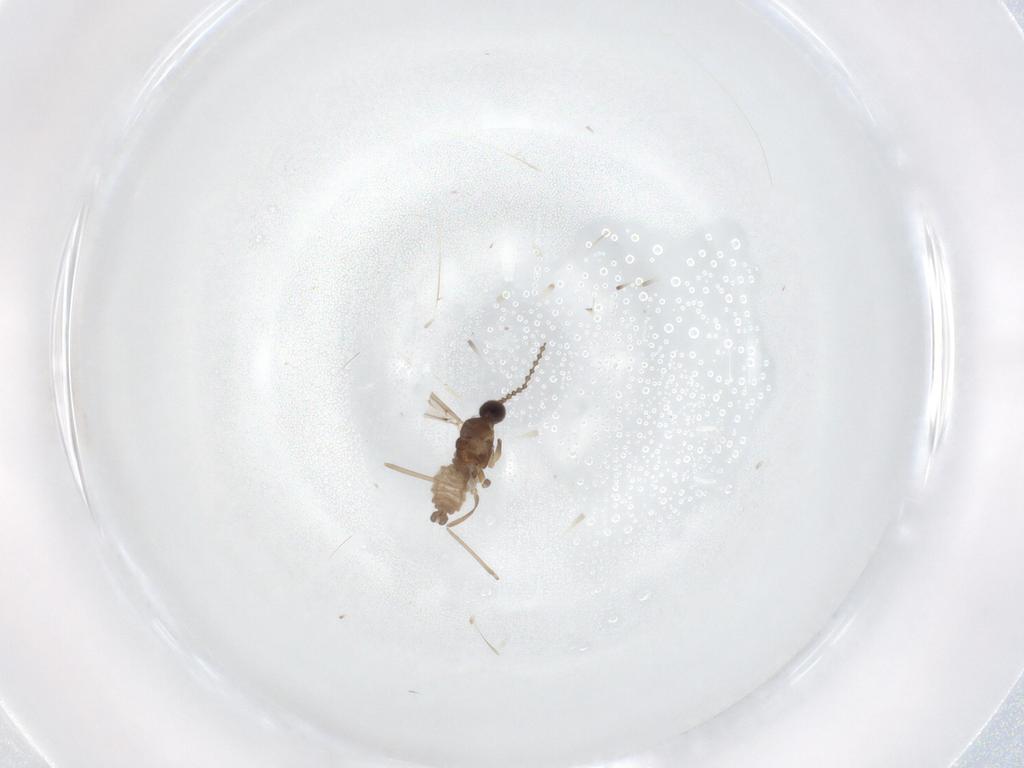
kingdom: Animalia
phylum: Arthropoda
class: Insecta
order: Diptera
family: Cecidomyiidae
